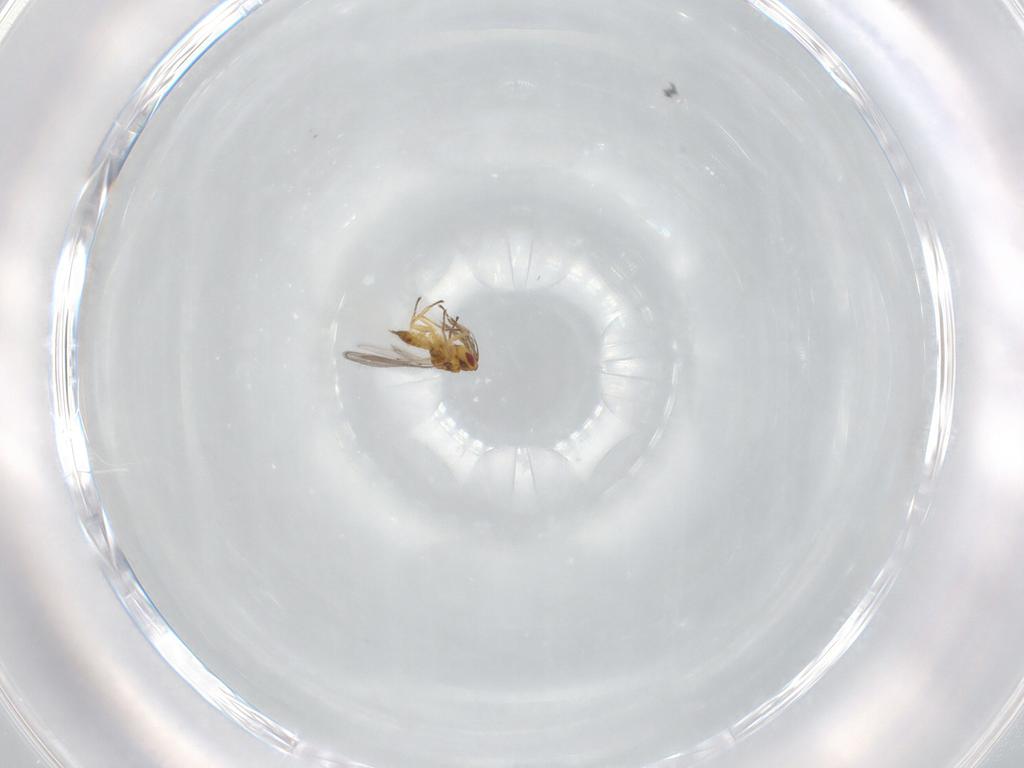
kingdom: Animalia
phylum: Arthropoda
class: Insecta
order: Hymenoptera
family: Eulophidae
